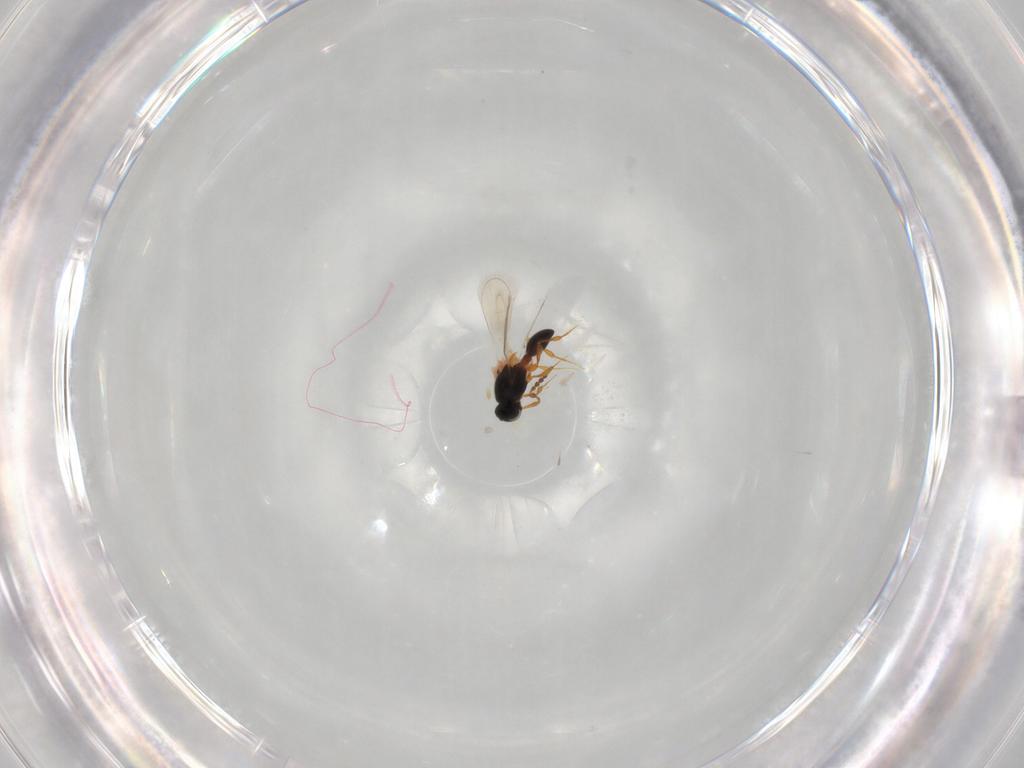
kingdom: Animalia
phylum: Arthropoda
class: Insecta
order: Hymenoptera
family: Platygastridae
